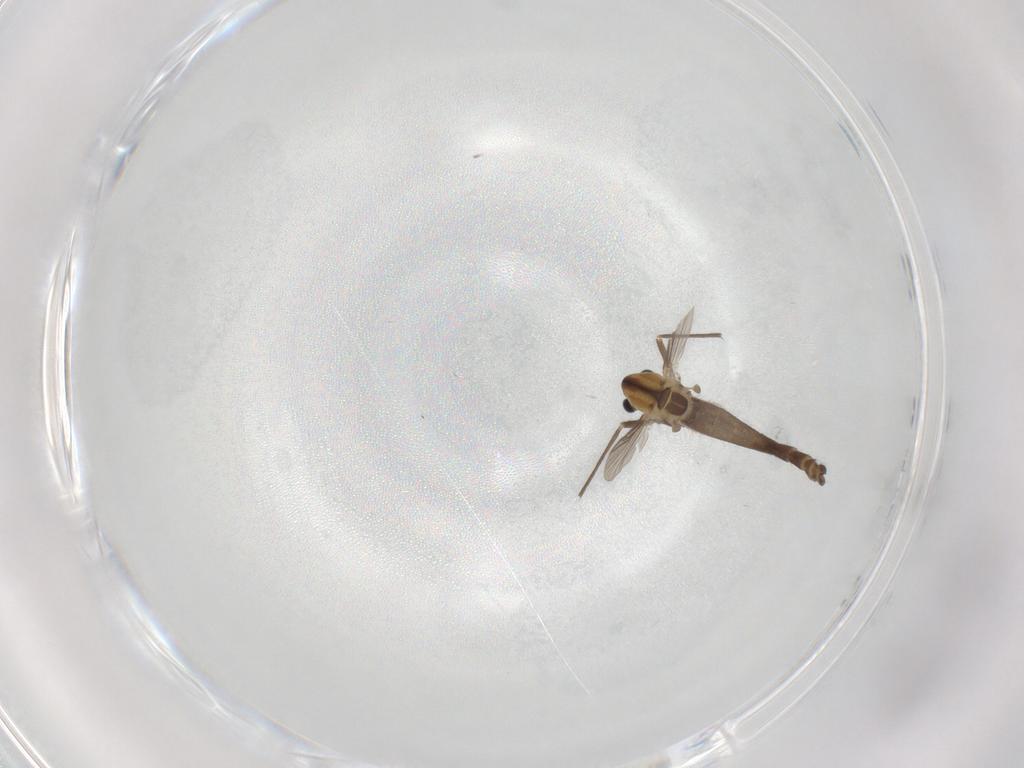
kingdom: Animalia
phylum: Arthropoda
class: Insecta
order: Diptera
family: Chironomidae
